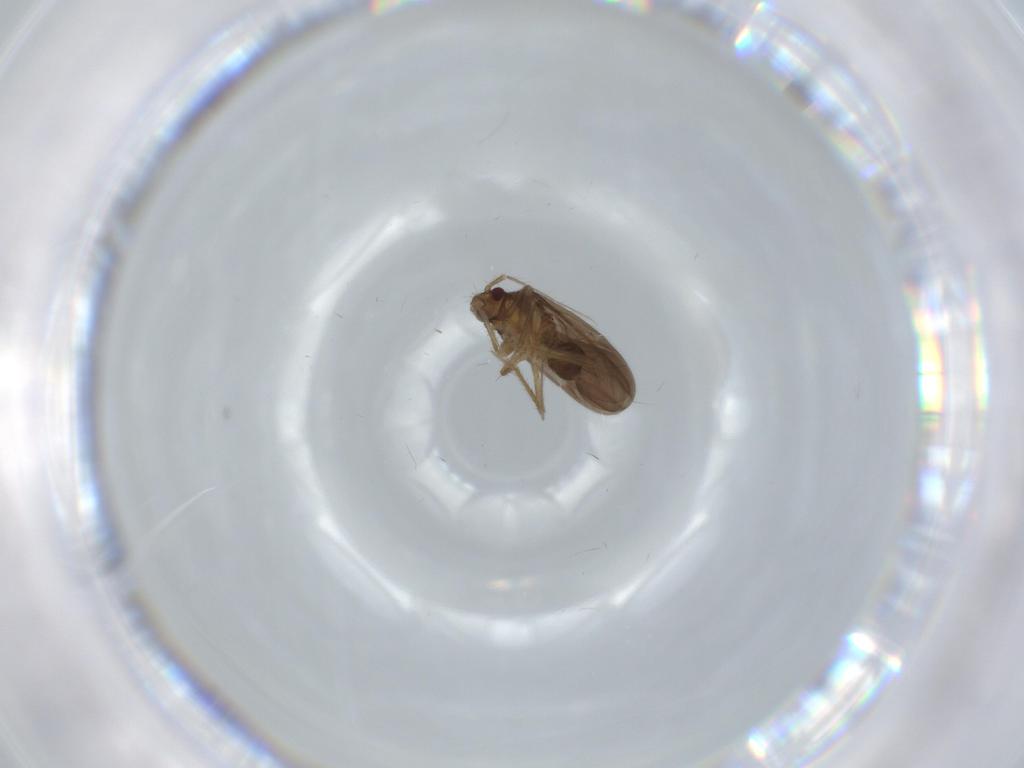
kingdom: Animalia
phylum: Arthropoda
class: Insecta
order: Hemiptera
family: Ceratocombidae
